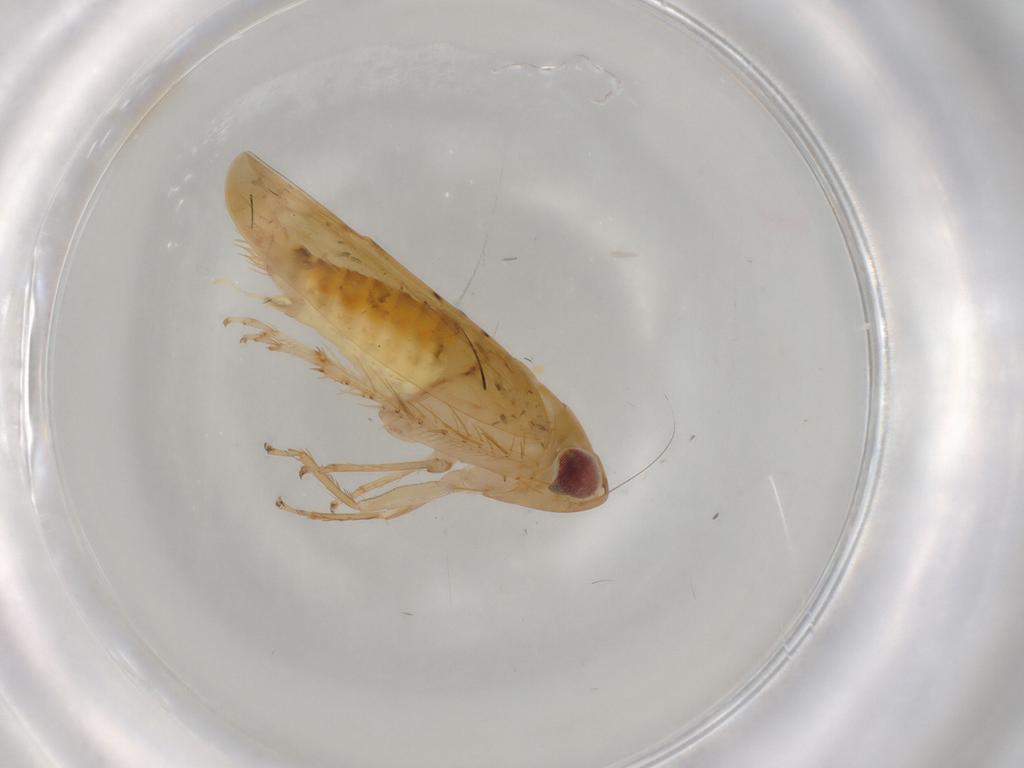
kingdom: Animalia
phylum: Arthropoda
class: Insecta
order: Hemiptera
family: Cicadellidae
